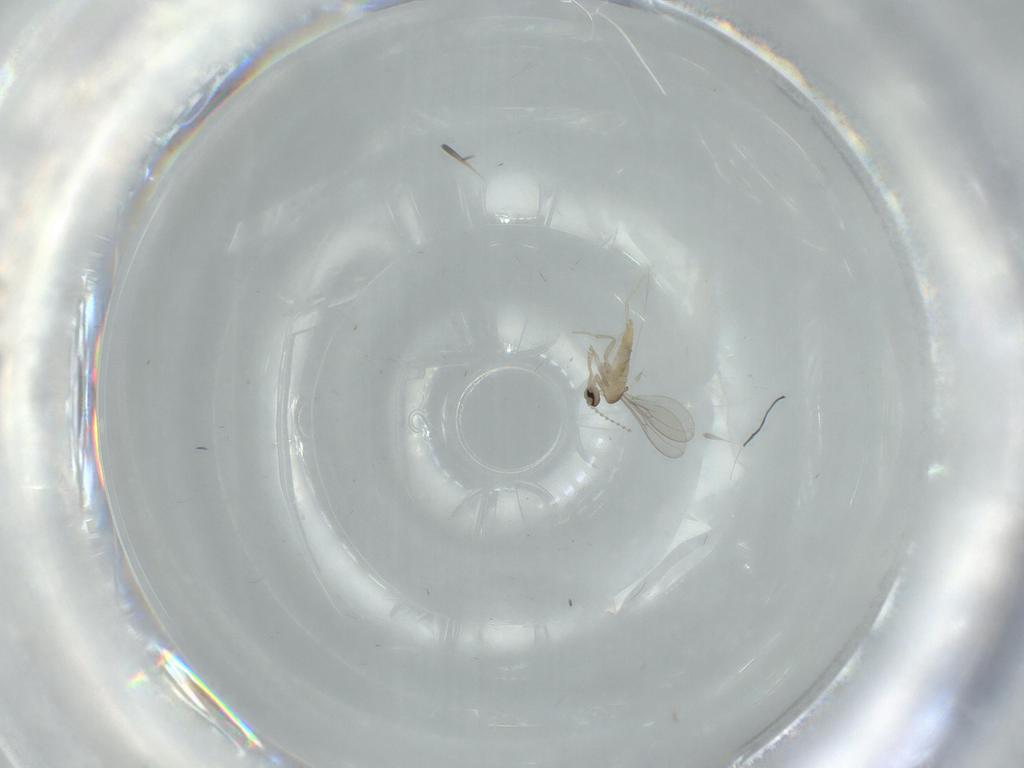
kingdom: Animalia
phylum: Arthropoda
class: Insecta
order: Diptera
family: Cecidomyiidae
